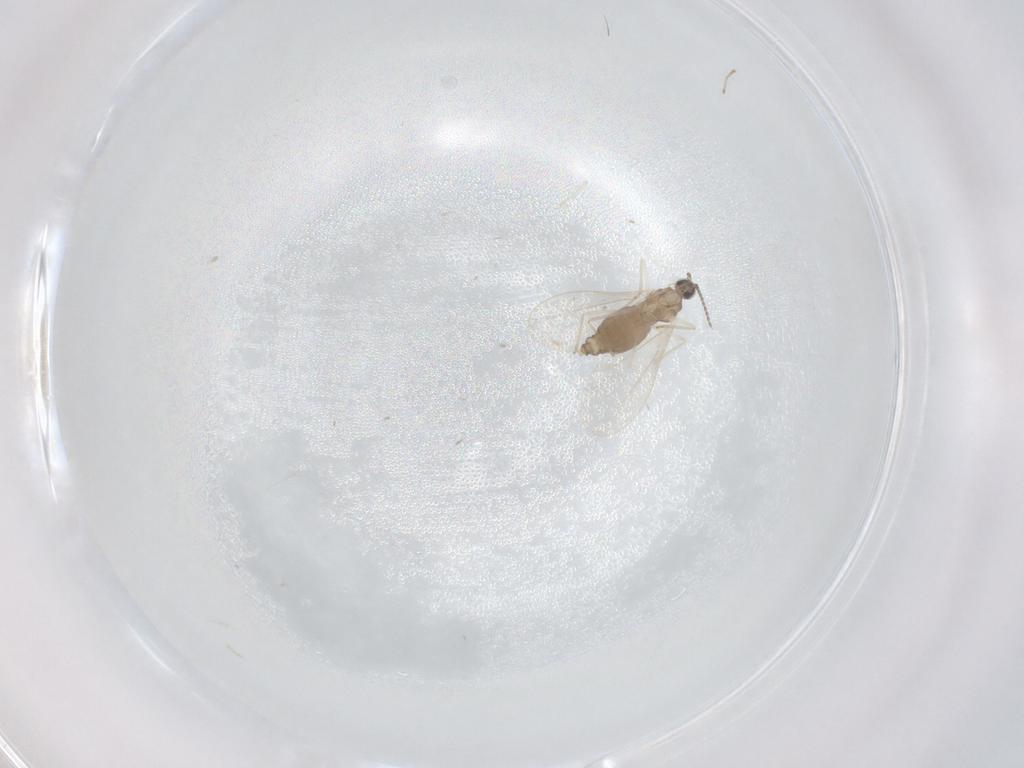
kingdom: Animalia
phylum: Arthropoda
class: Insecta
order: Diptera
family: Cecidomyiidae
